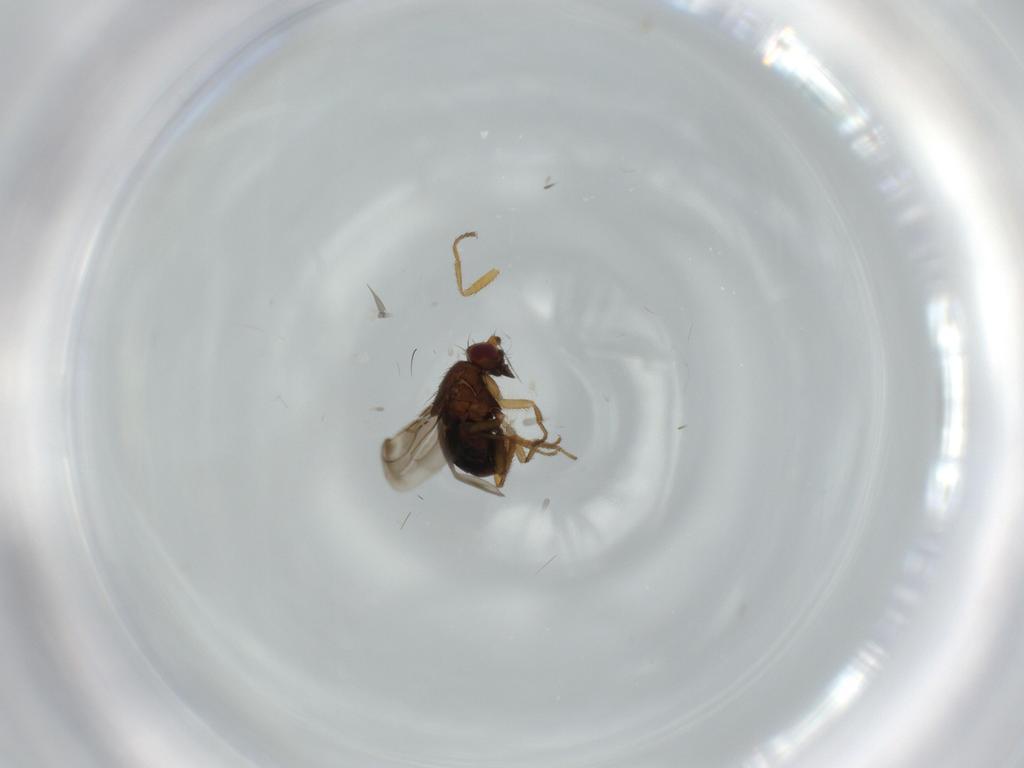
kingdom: Animalia
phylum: Arthropoda
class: Insecta
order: Diptera
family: Sphaeroceridae
